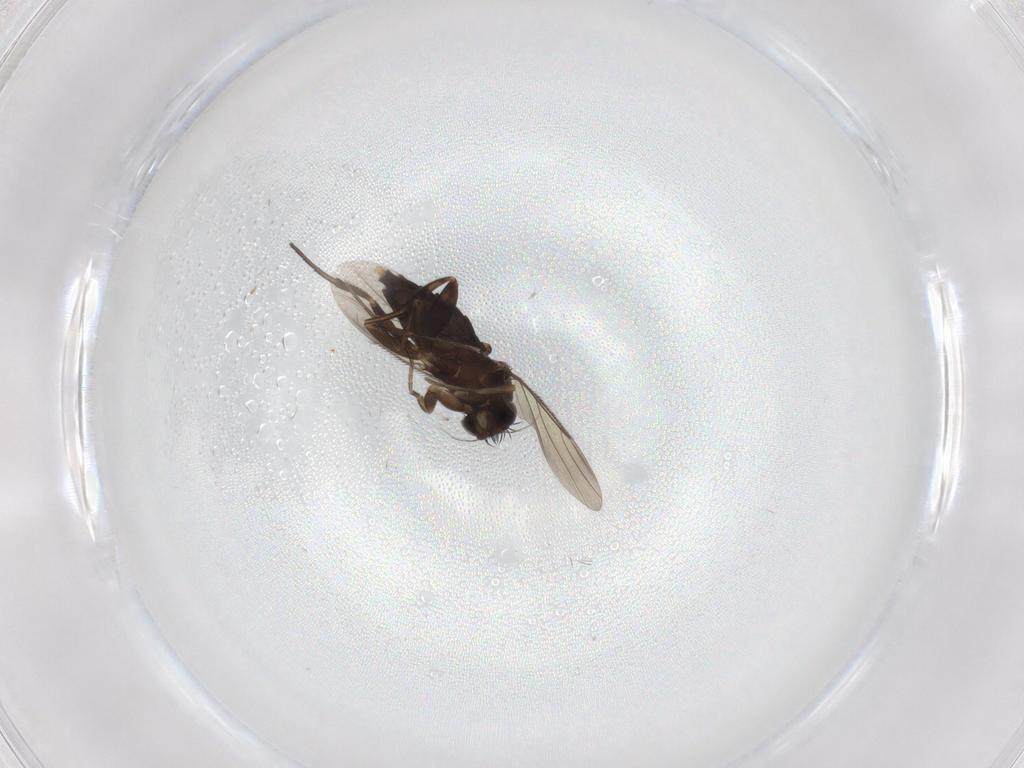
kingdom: Animalia
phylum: Arthropoda
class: Insecta
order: Diptera
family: Phoridae
